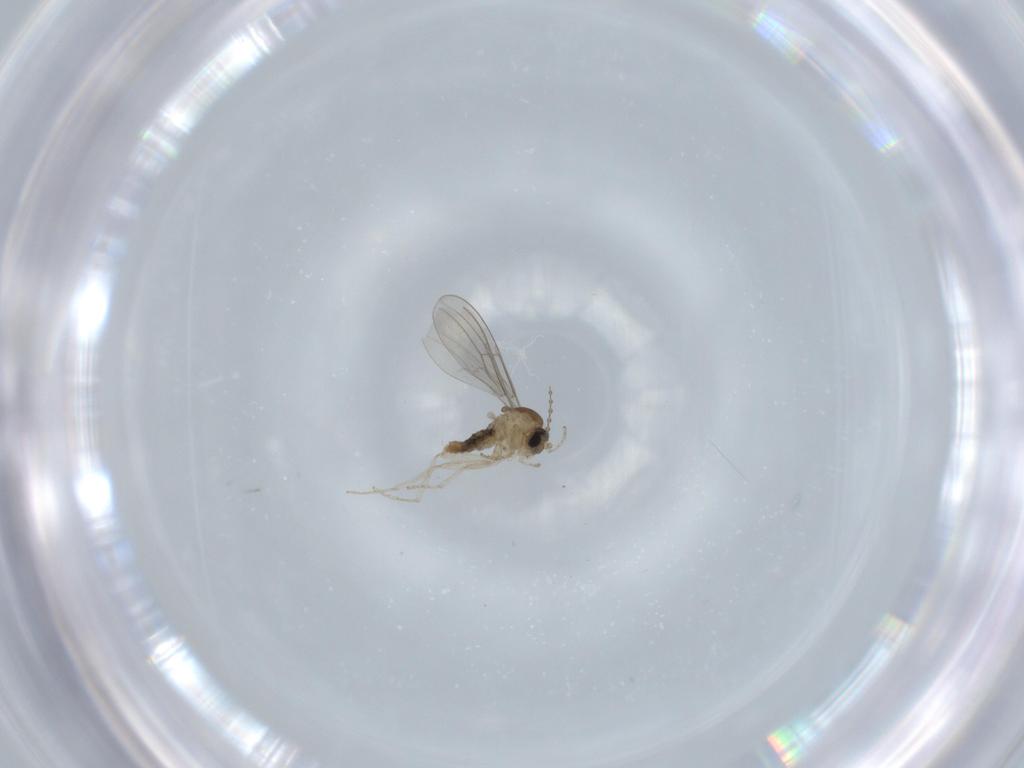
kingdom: Animalia
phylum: Arthropoda
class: Insecta
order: Diptera
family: Cecidomyiidae
